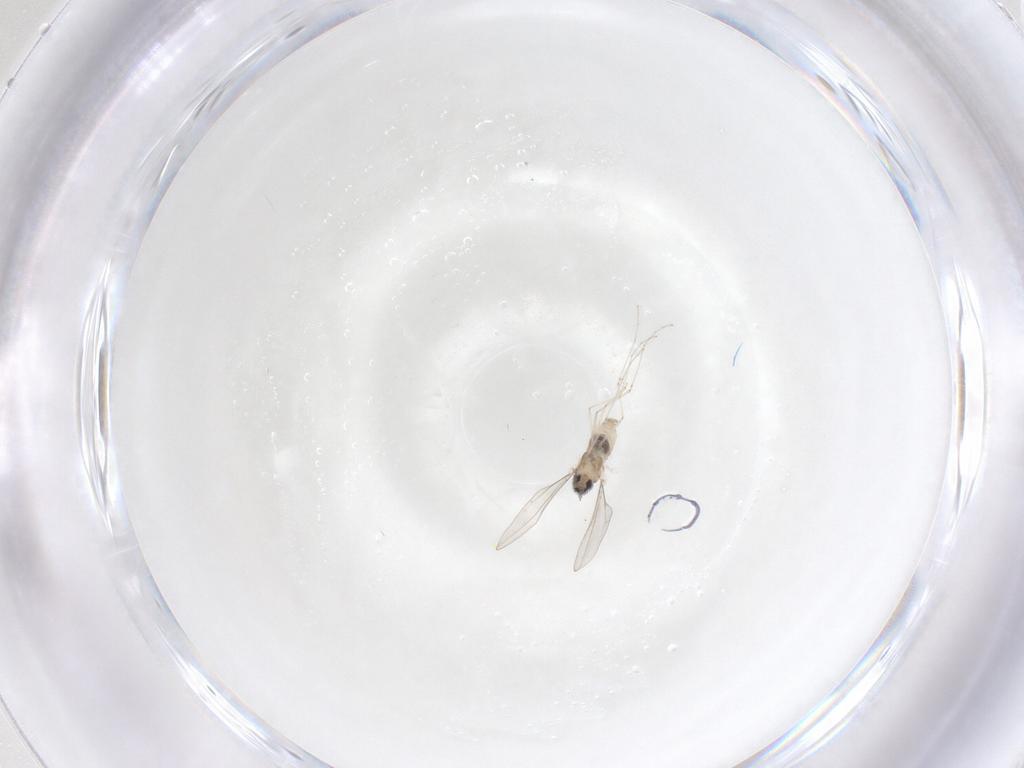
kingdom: Animalia
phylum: Arthropoda
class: Insecta
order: Diptera
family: Cecidomyiidae
